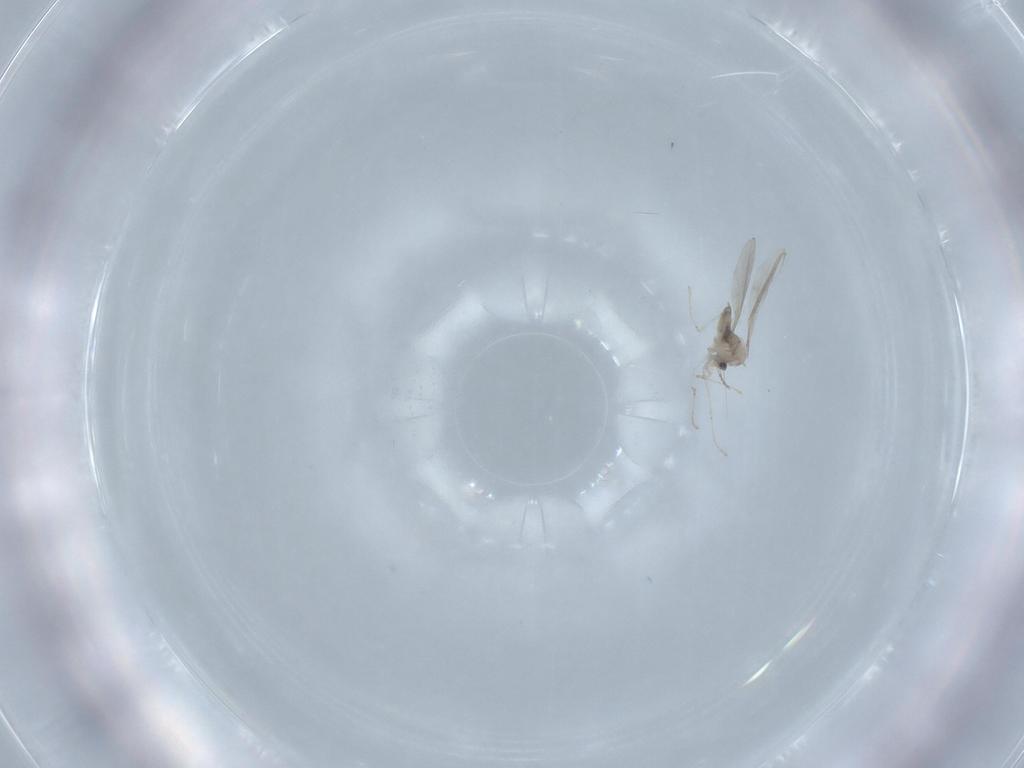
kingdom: Animalia
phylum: Arthropoda
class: Insecta
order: Diptera
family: Cecidomyiidae
